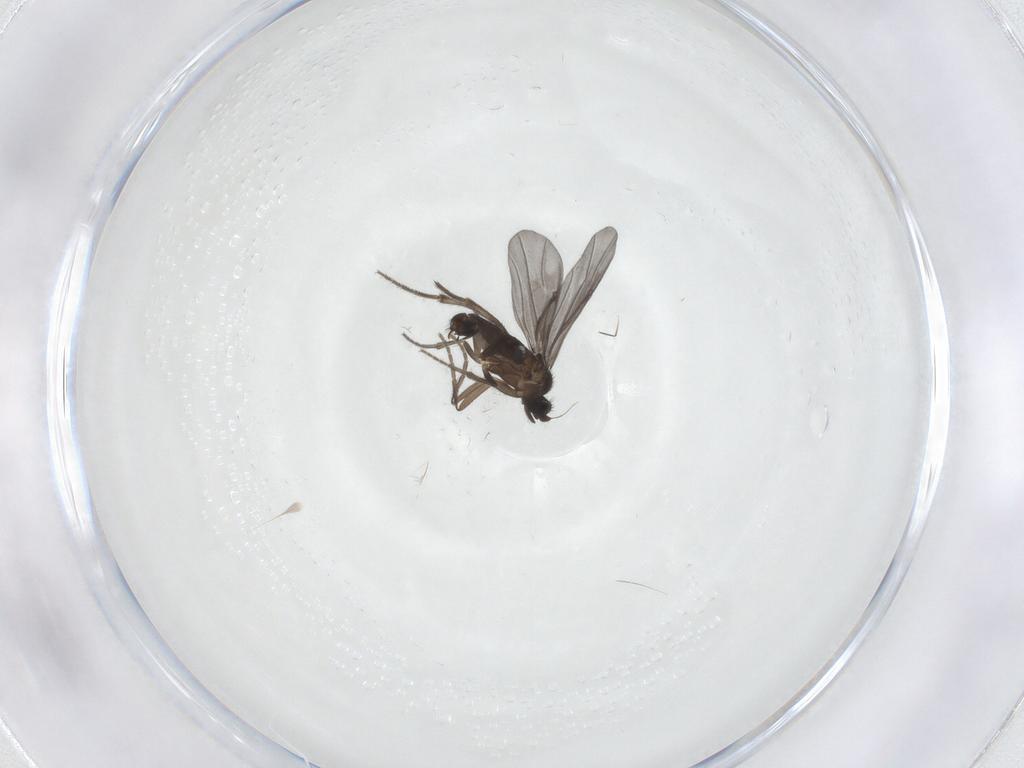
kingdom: Animalia
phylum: Arthropoda
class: Insecta
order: Diptera
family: Phoridae
